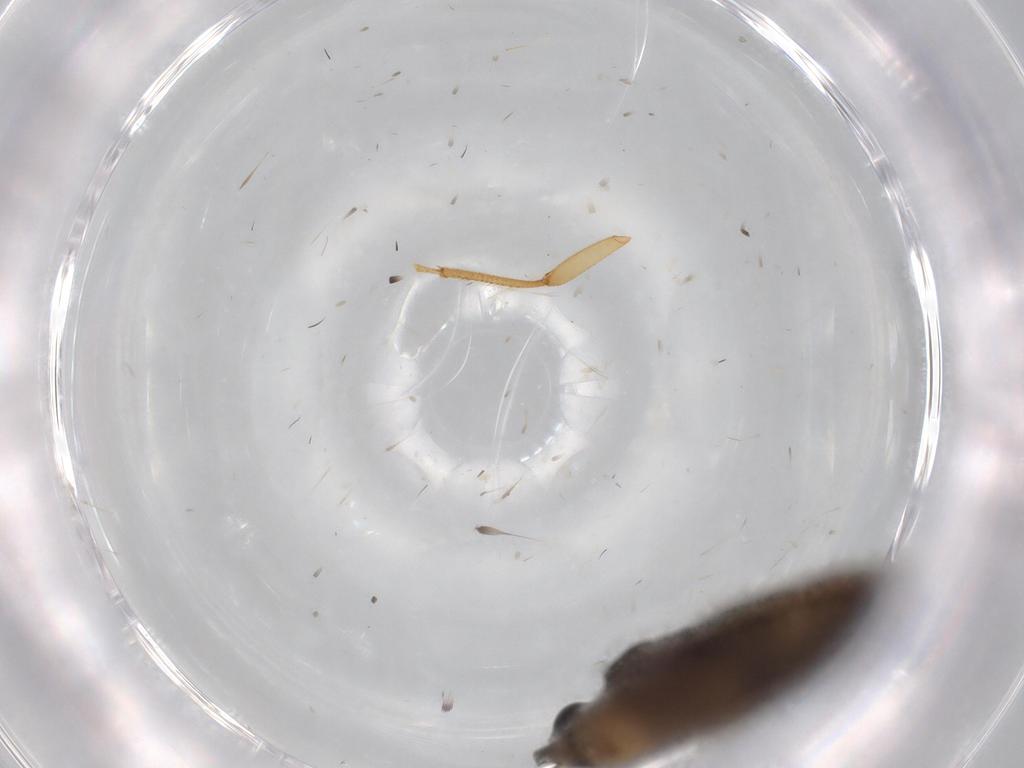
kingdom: Animalia
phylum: Arthropoda
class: Insecta
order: Lepidoptera
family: Tineidae
